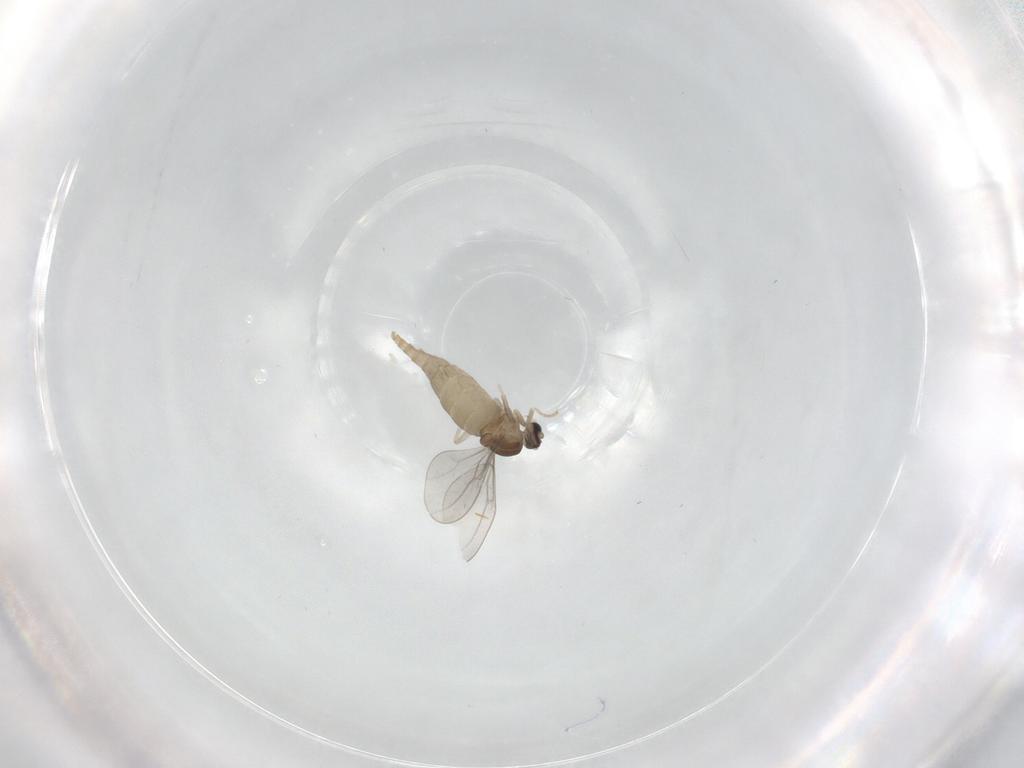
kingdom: Animalia
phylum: Arthropoda
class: Insecta
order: Diptera
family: Cecidomyiidae
